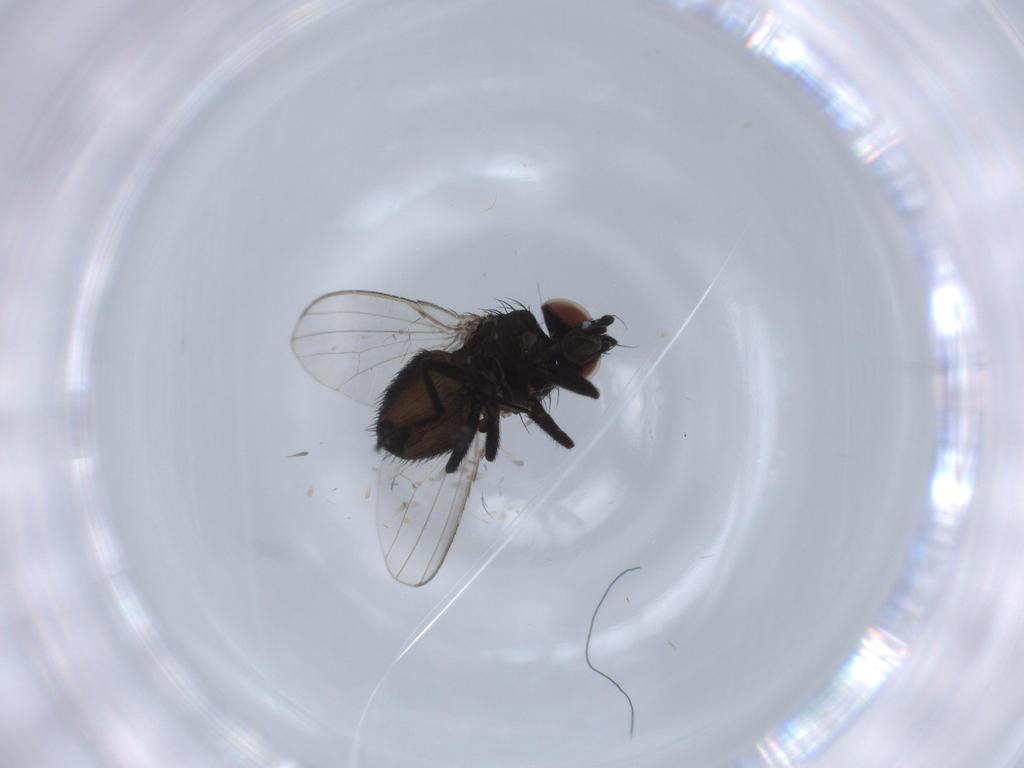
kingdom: Animalia
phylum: Arthropoda
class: Insecta
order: Diptera
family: Milichiidae
